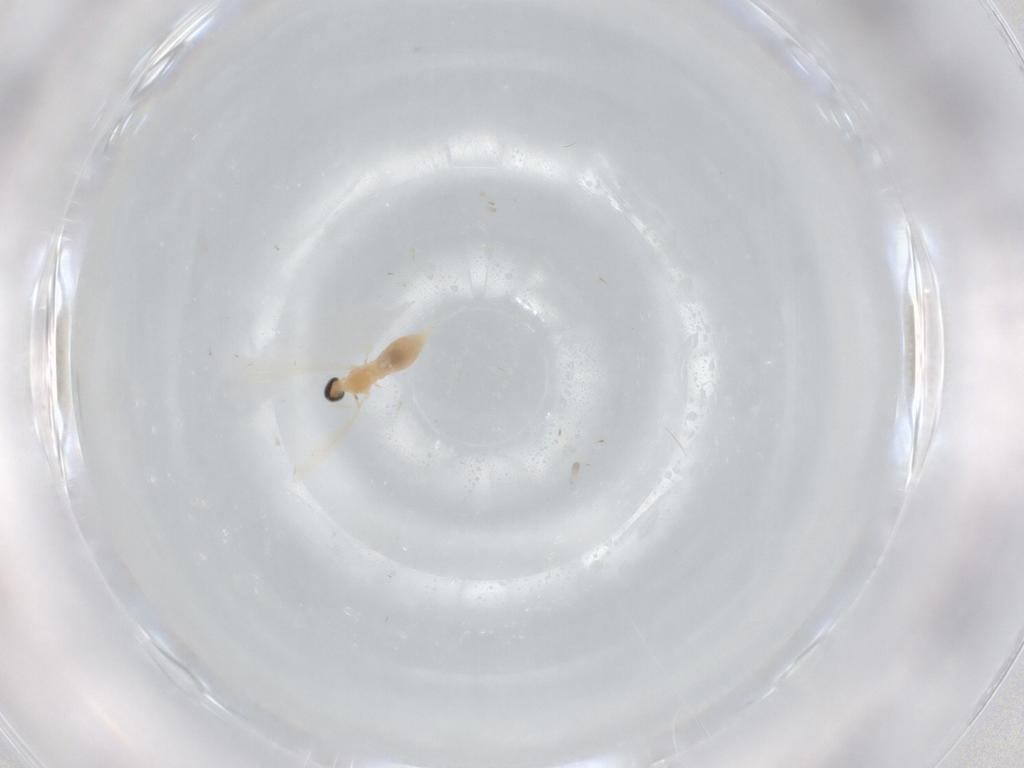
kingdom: Animalia
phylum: Arthropoda
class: Insecta
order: Diptera
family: Cecidomyiidae
